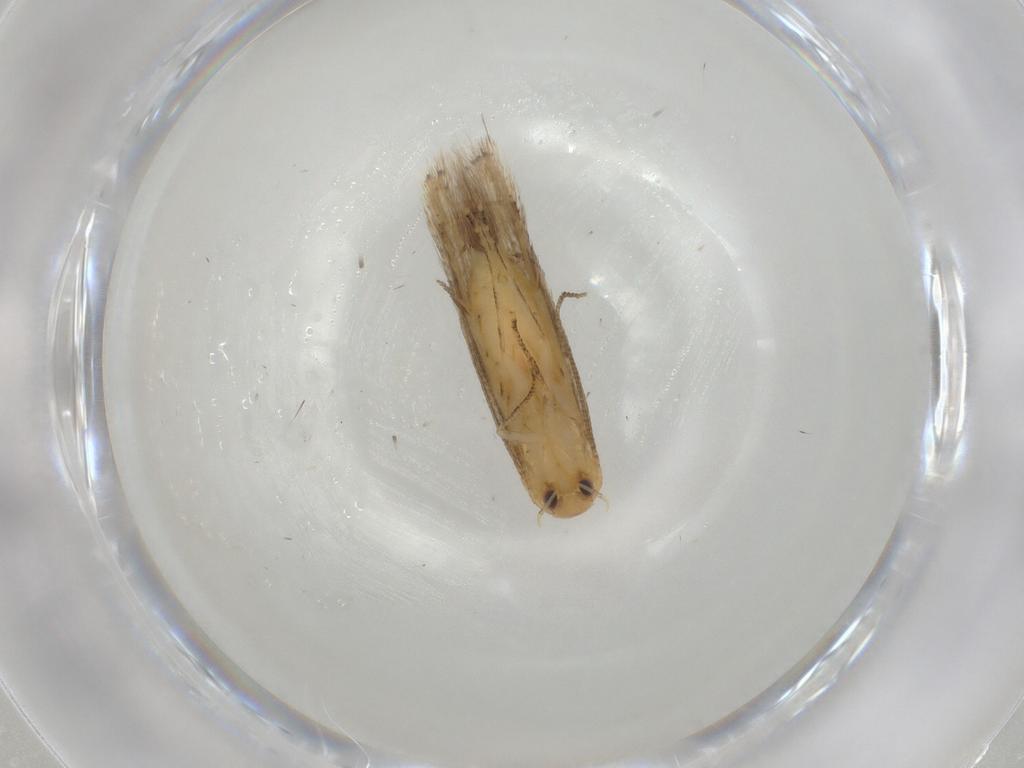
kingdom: Animalia
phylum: Arthropoda
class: Insecta
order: Lepidoptera
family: Depressariidae
